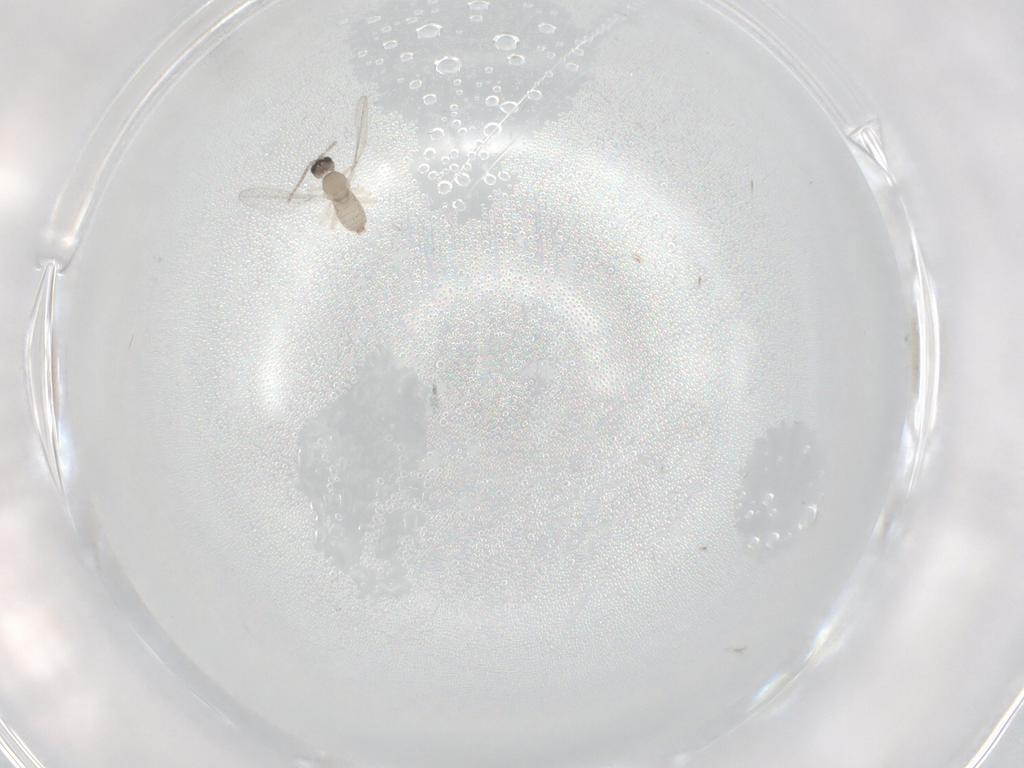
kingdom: Animalia
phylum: Arthropoda
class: Insecta
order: Diptera
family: Cecidomyiidae
